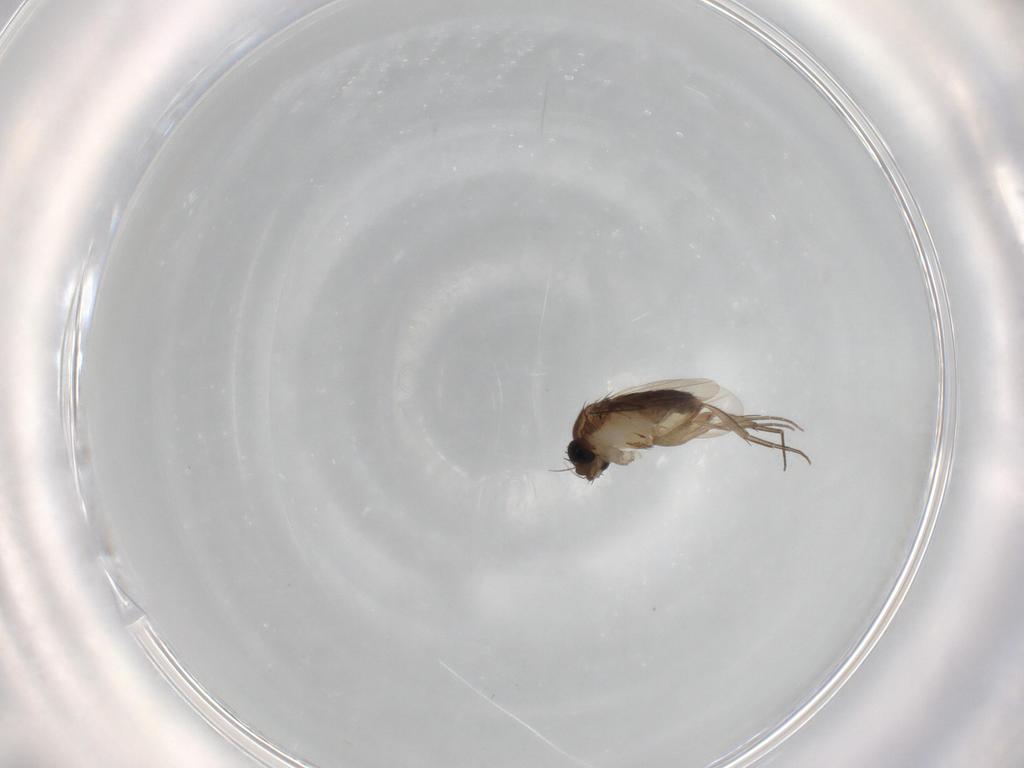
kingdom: Animalia
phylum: Arthropoda
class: Insecta
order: Diptera
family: Phoridae
